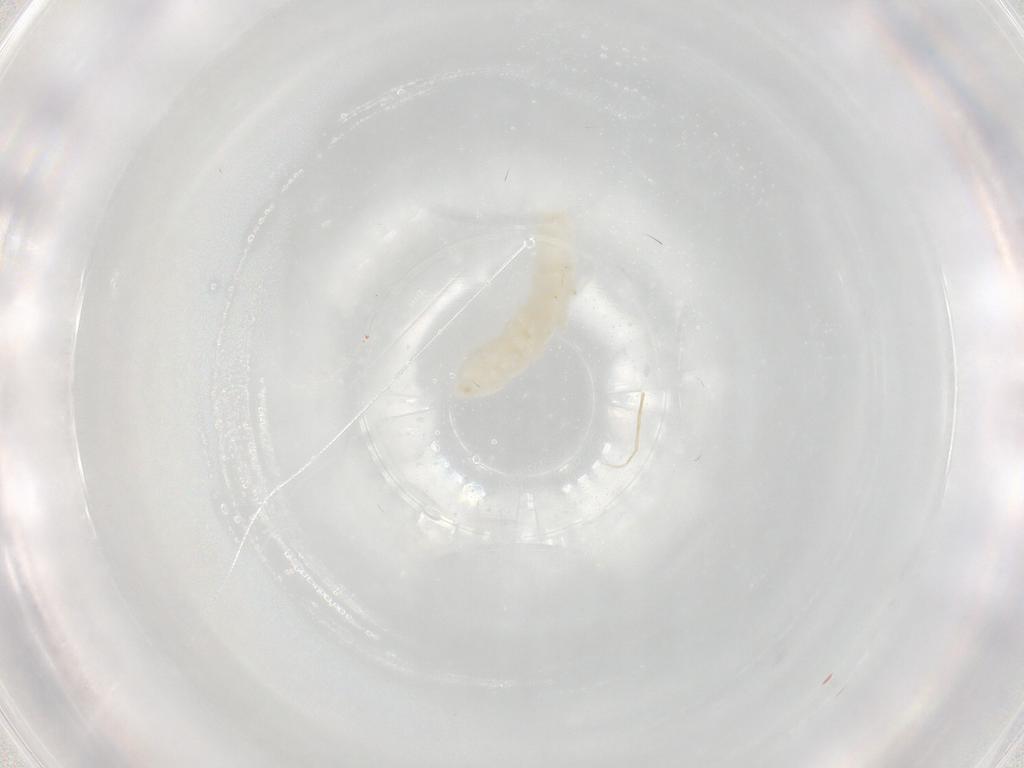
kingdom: Animalia
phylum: Arthropoda
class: Collembola
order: Poduromorpha
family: Onychiuridae
